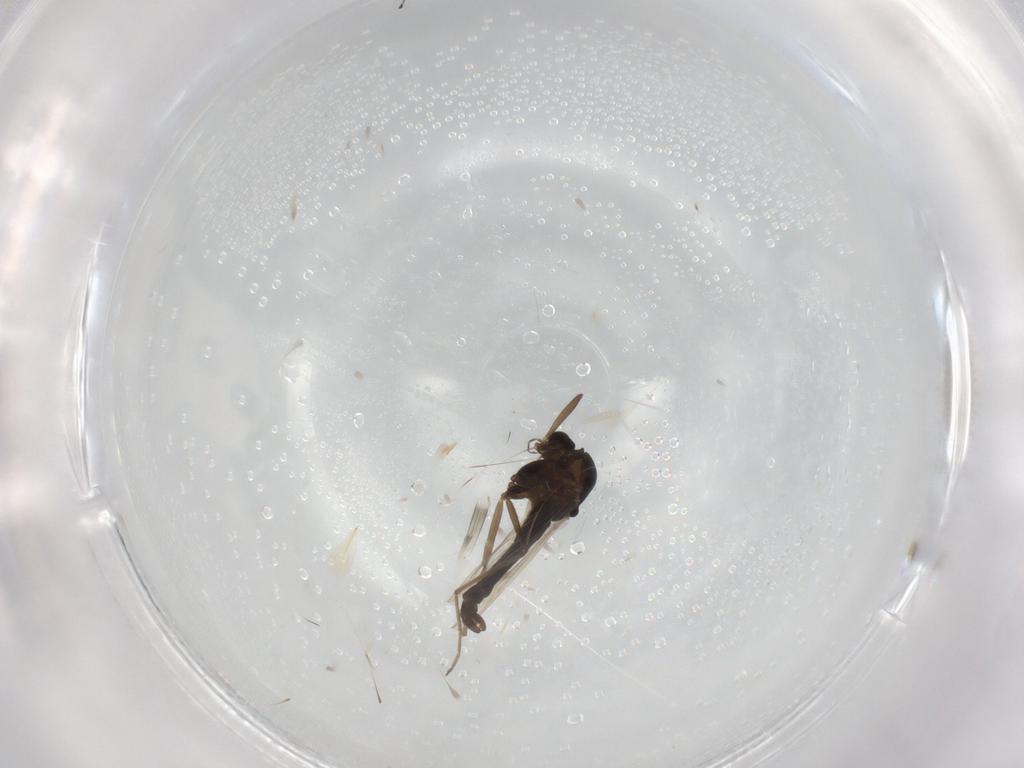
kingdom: Animalia
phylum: Arthropoda
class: Insecta
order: Diptera
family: Chironomidae
